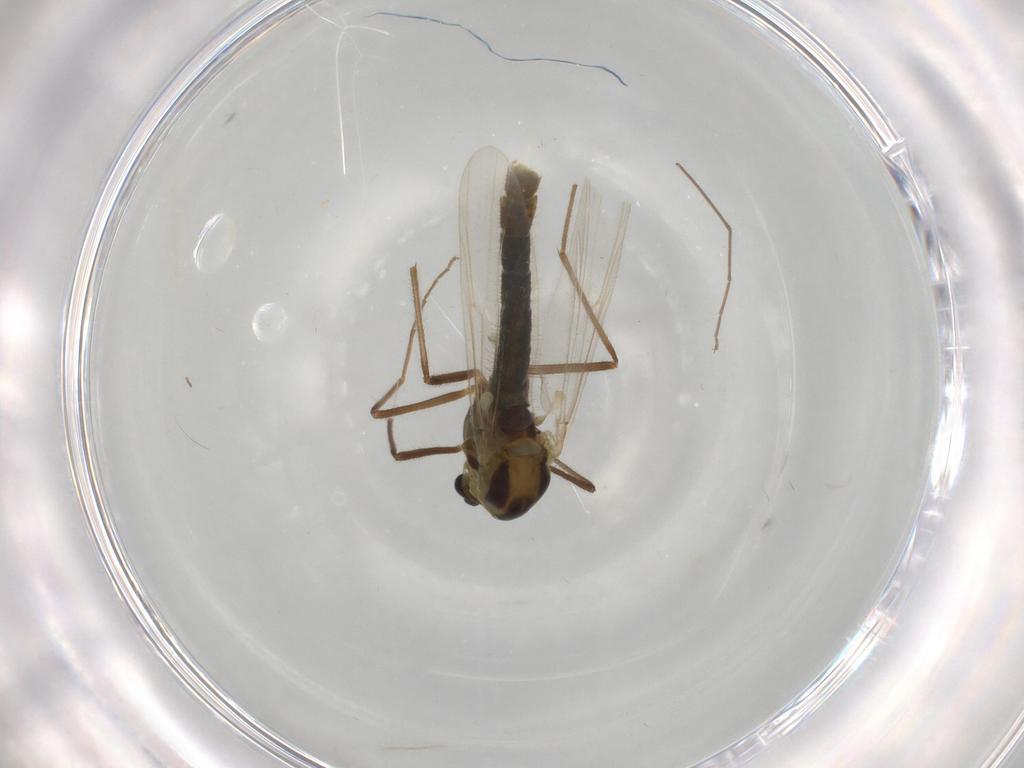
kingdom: Animalia
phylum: Arthropoda
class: Insecta
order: Diptera
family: Heleomyzidae
